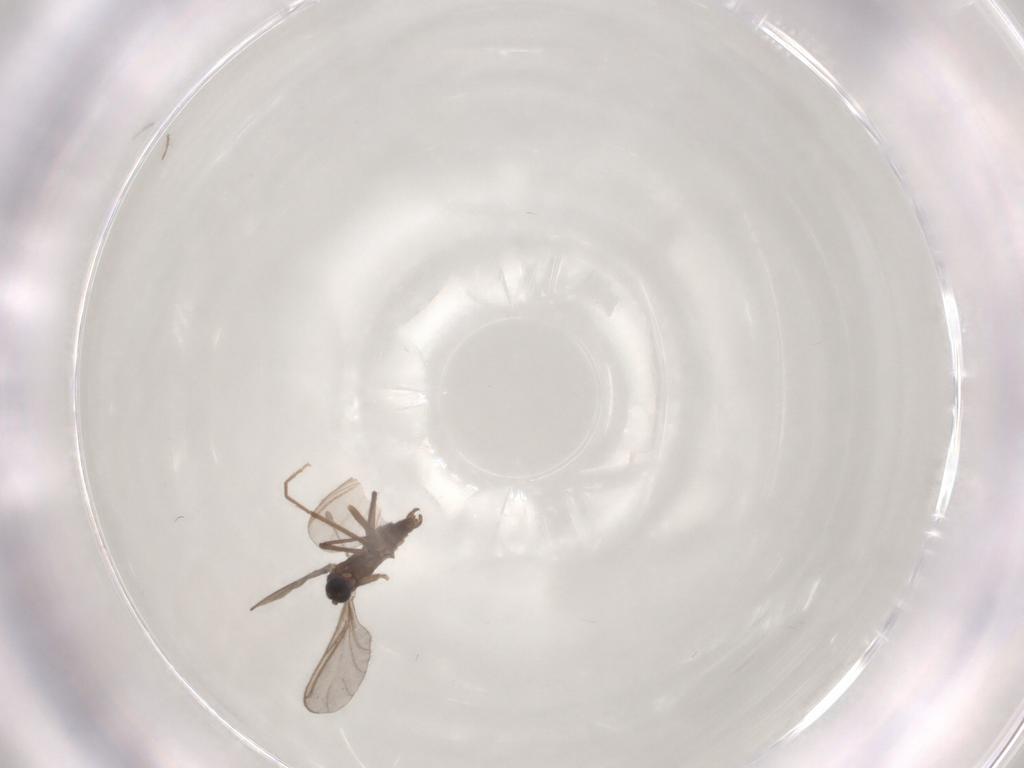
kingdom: Animalia
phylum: Arthropoda
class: Insecta
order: Diptera
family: Sciaridae
